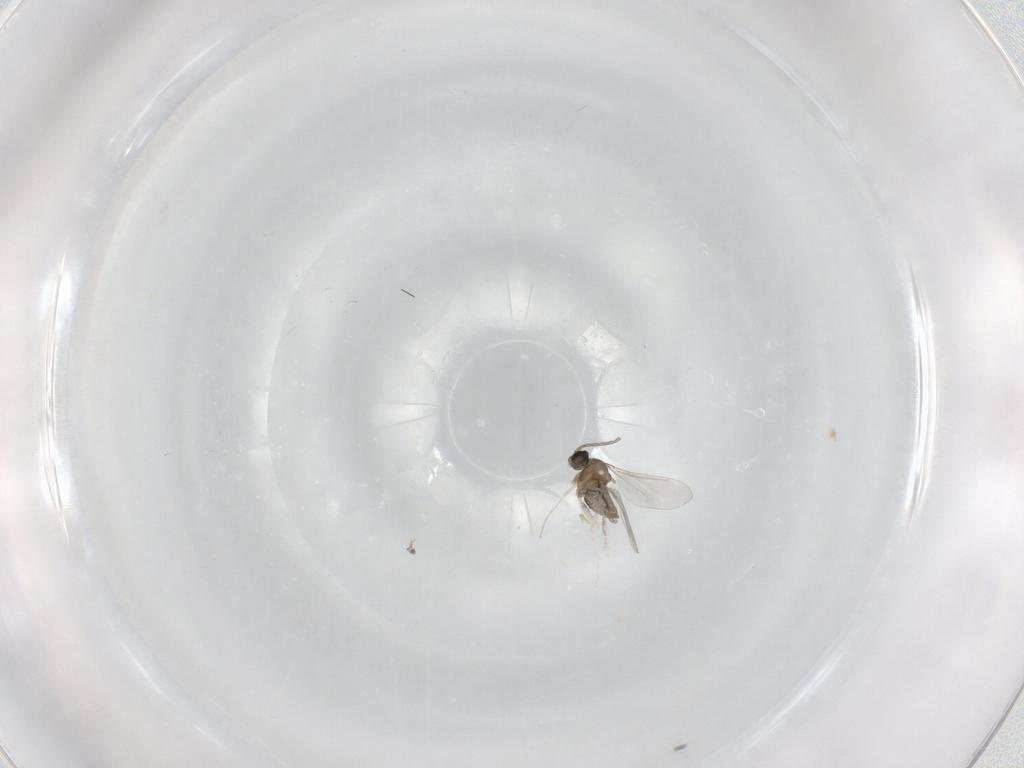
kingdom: Animalia
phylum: Arthropoda
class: Insecta
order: Diptera
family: Cecidomyiidae
